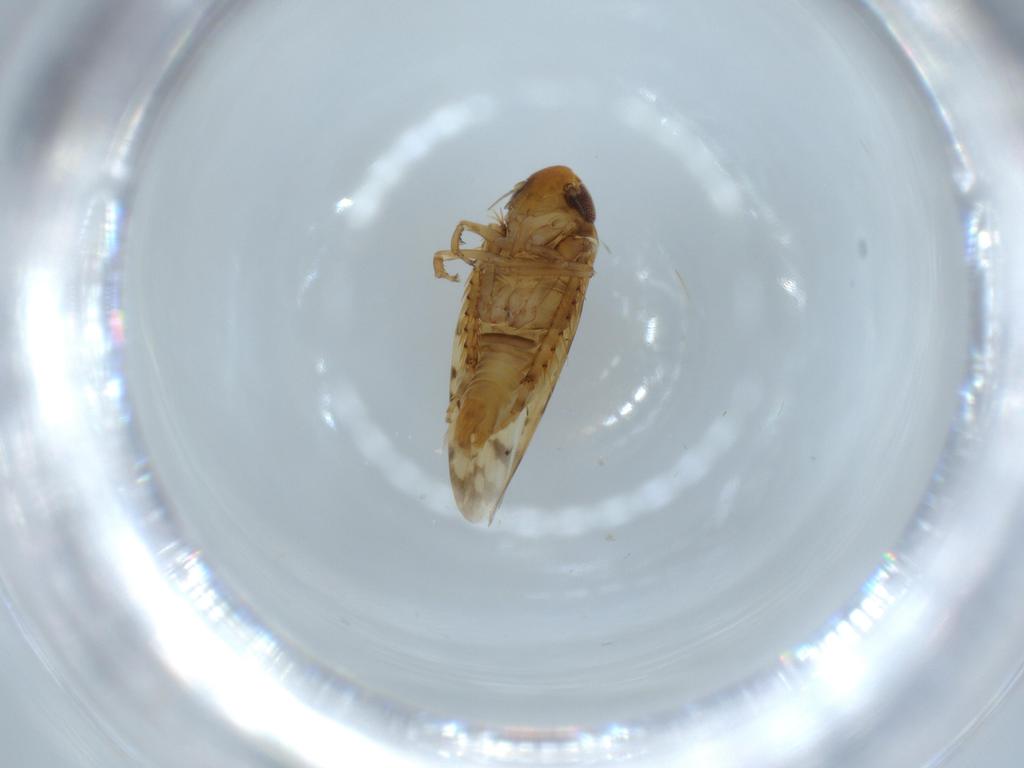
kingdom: Animalia
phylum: Arthropoda
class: Insecta
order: Hemiptera
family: Cicadellidae
